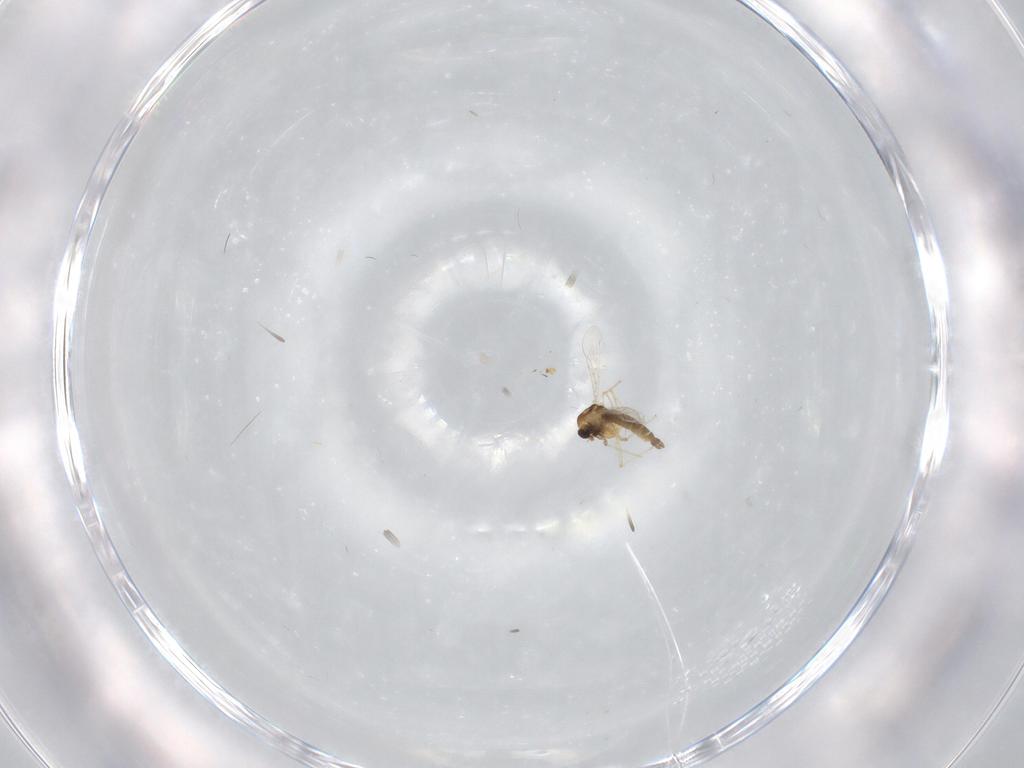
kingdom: Animalia
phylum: Arthropoda
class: Insecta
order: Diptera
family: Chironomidae
